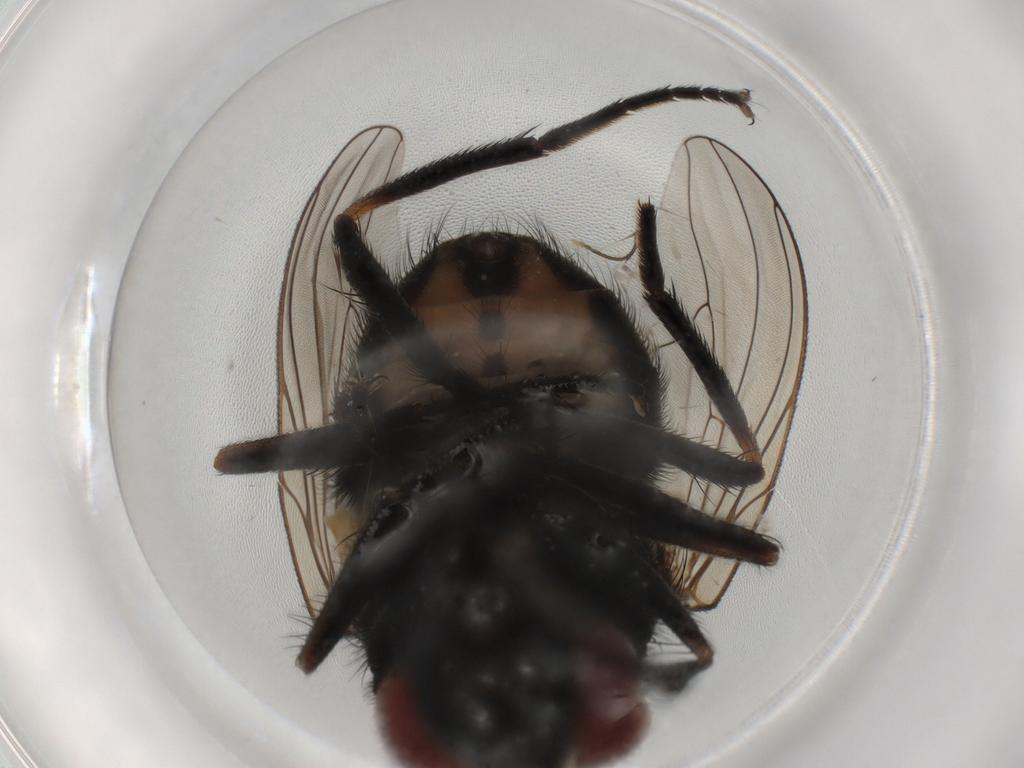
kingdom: Animalia
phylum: Arthropoda
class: Insecta
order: Diptera
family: Muscidae
